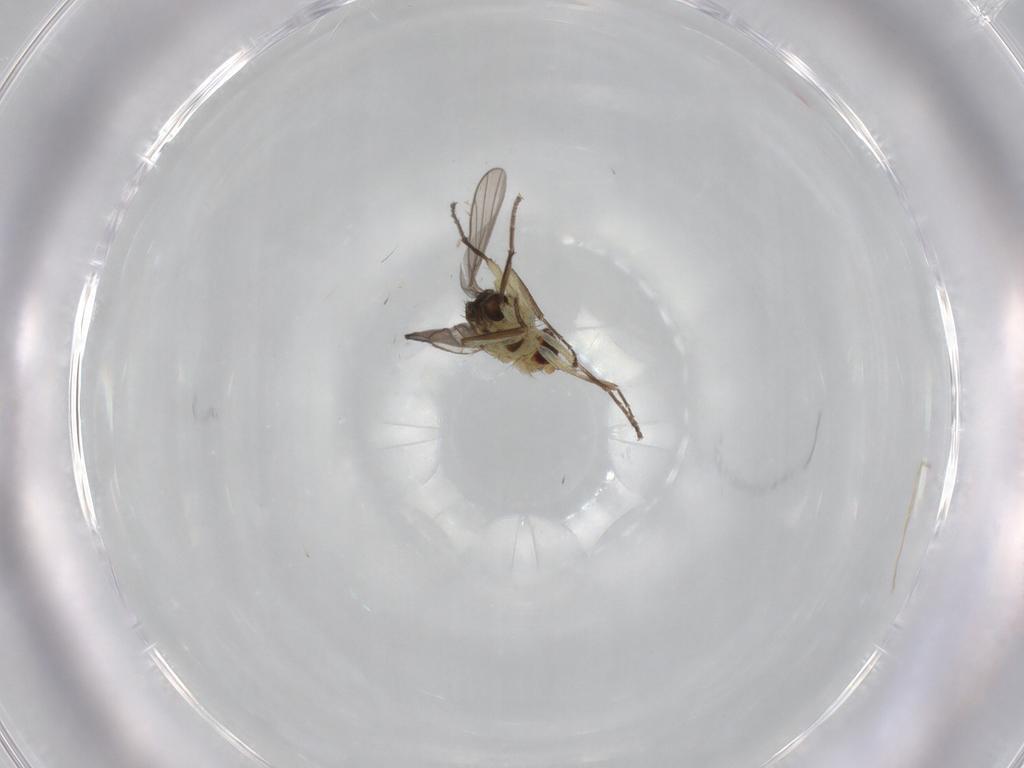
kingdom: Animalia
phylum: Arthropoda
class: Insecta
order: Diptera
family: Agromyzidae
